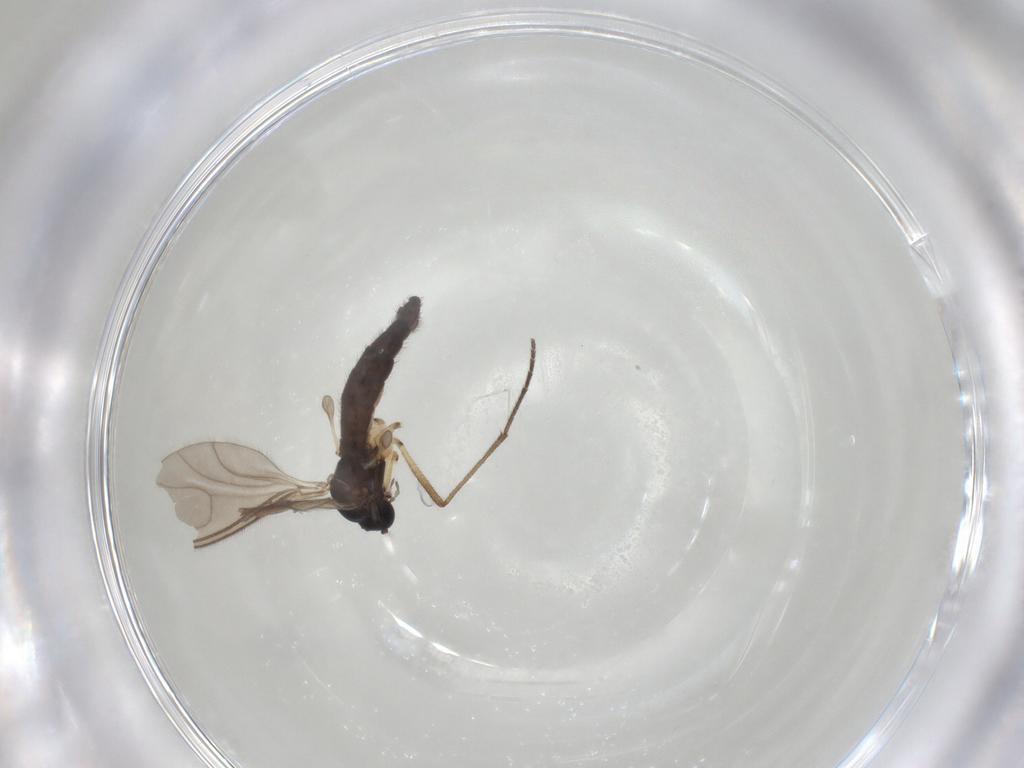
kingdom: Animalia
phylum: Arthropoda
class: Insecta
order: Diptera
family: Sciaridae
